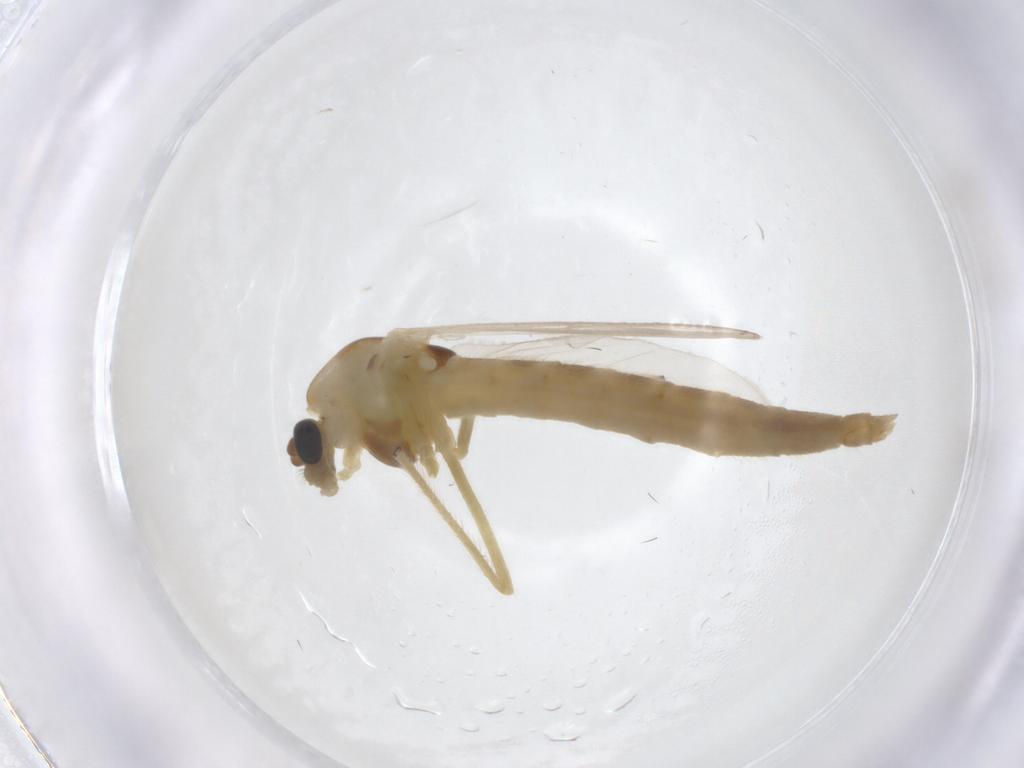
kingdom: Animalia
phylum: Arthropoda
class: Insecta
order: Diptera
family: Chironomidae
